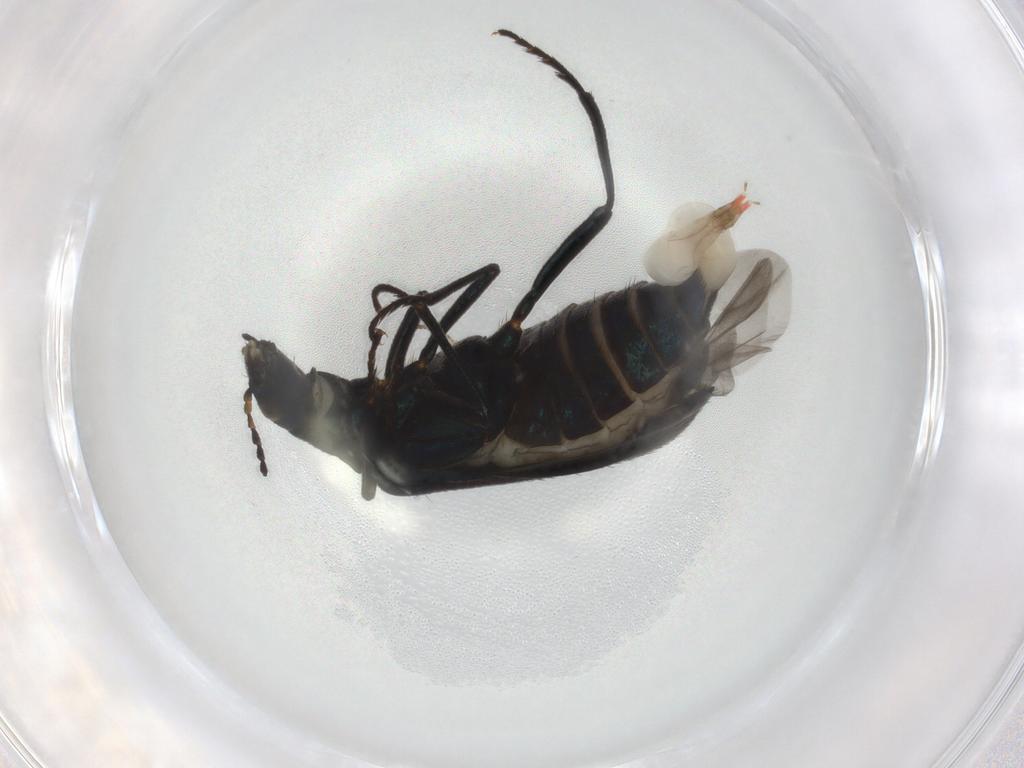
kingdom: Animalia
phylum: Arthropoda
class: Insecta
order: Coleoptera
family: Melyridae
